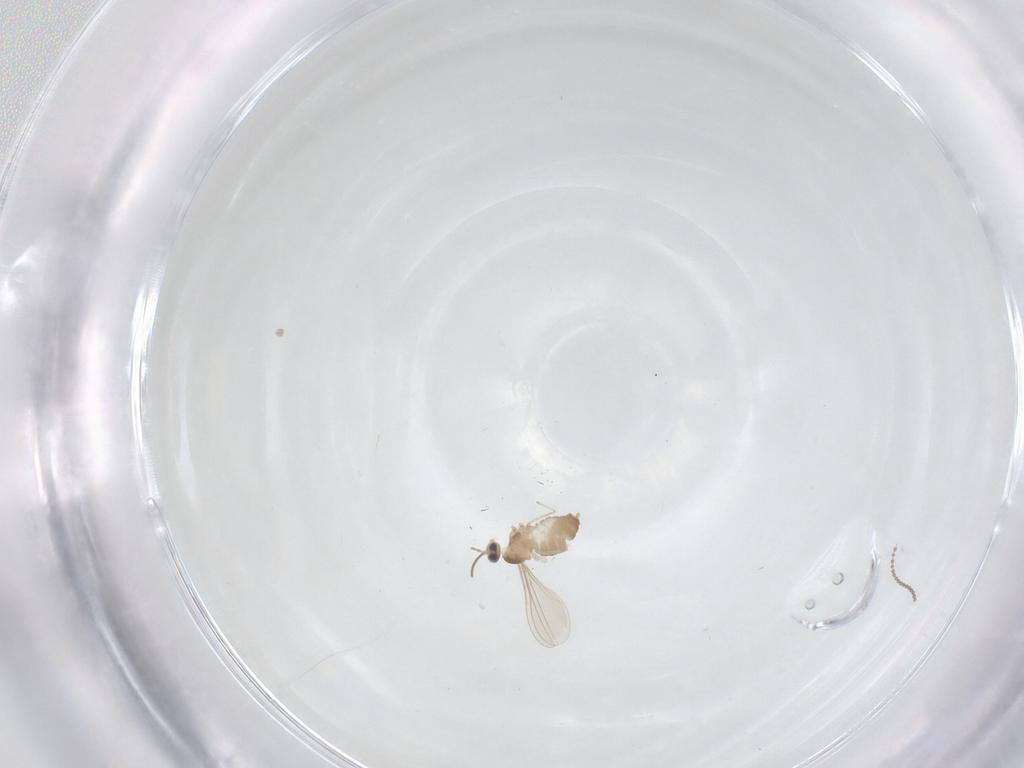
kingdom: Animalia
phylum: Arthropoda
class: Insecta
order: Diptera
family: Cecidomyiidae
